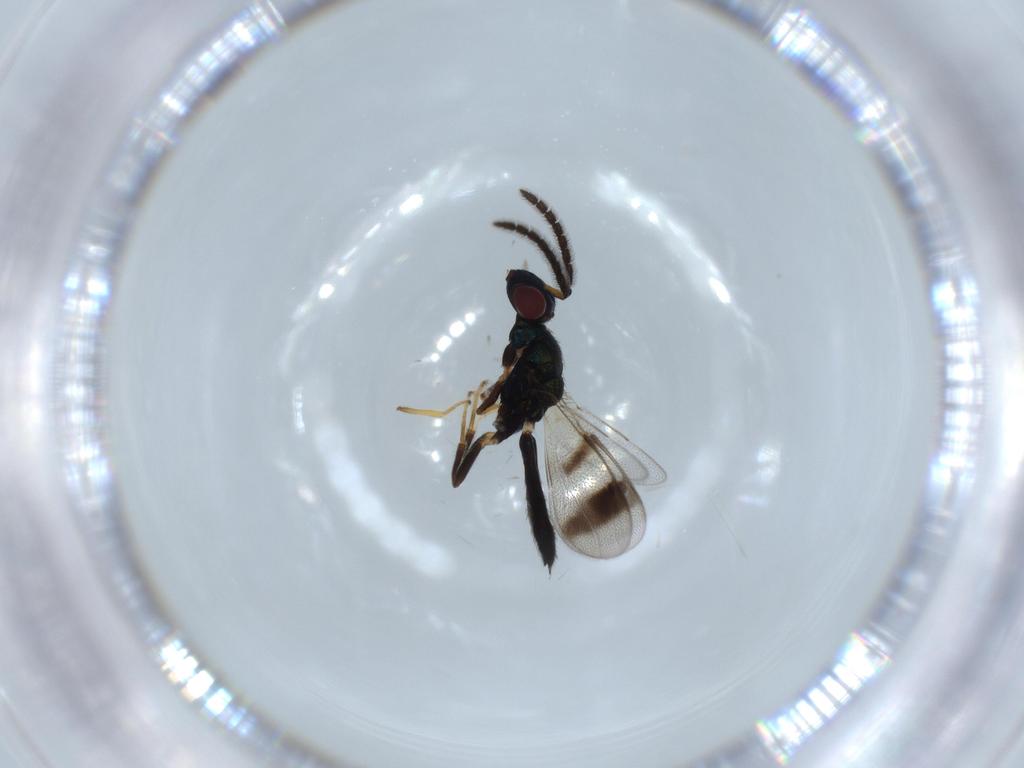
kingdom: Animalia
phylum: Arthropoda
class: Insecta
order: Hymenoptera
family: Pteromalidae
